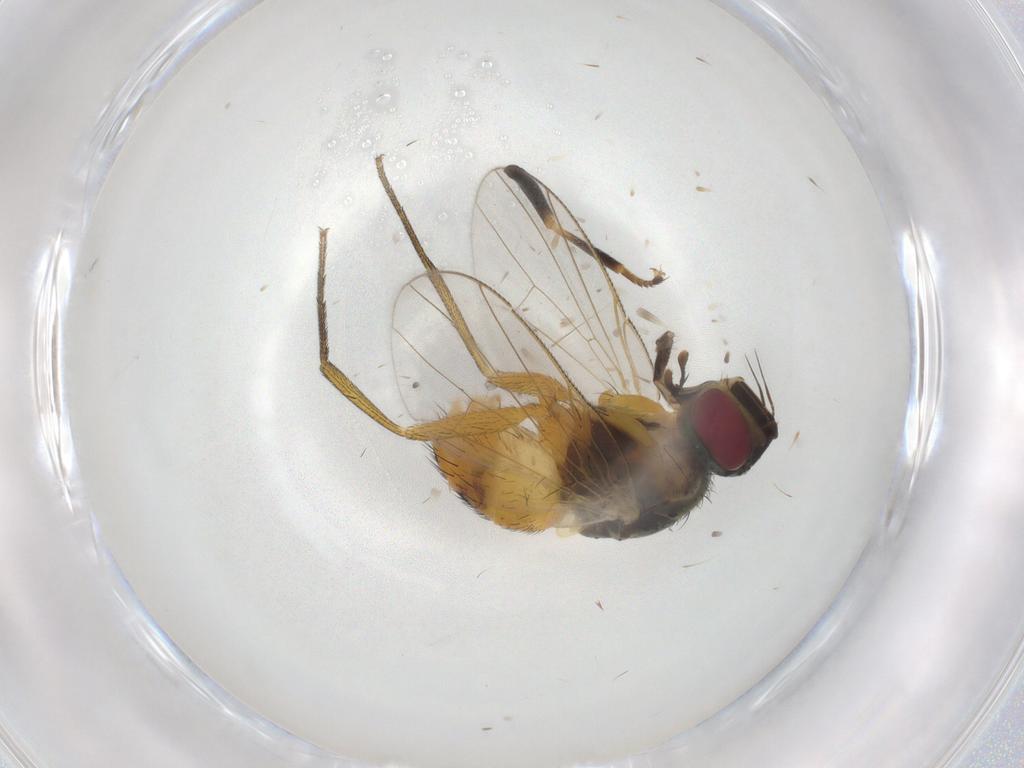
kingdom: Animalia
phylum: Arthropoda
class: Insecta
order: Diptera
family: Muscidae
